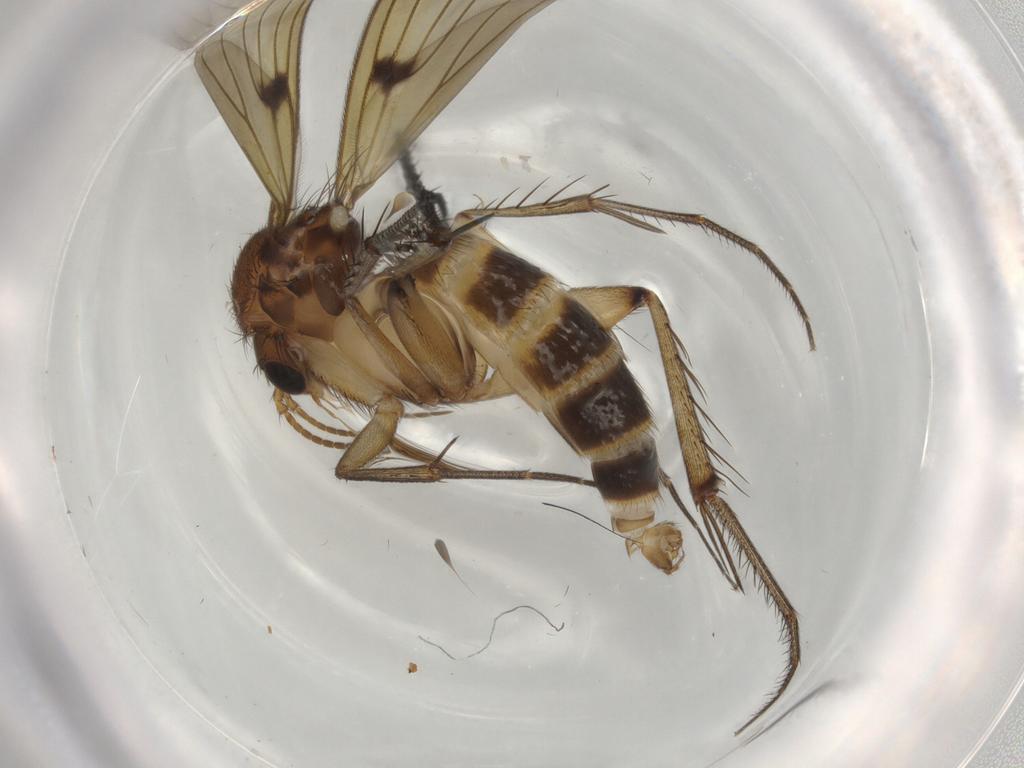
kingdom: Animalia
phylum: Arthropoda
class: Insecta
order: Diptera
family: Mycetophilidae
